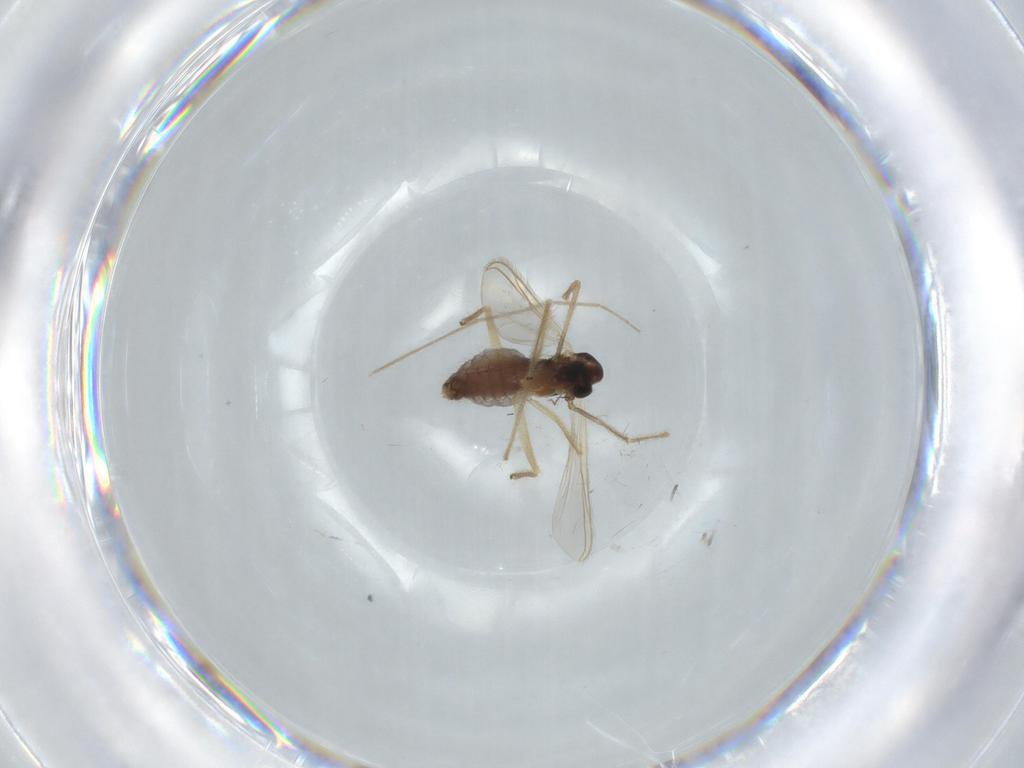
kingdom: Animalia
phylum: Arthropoda
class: Insecta
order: Diptera
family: Chironomidae
